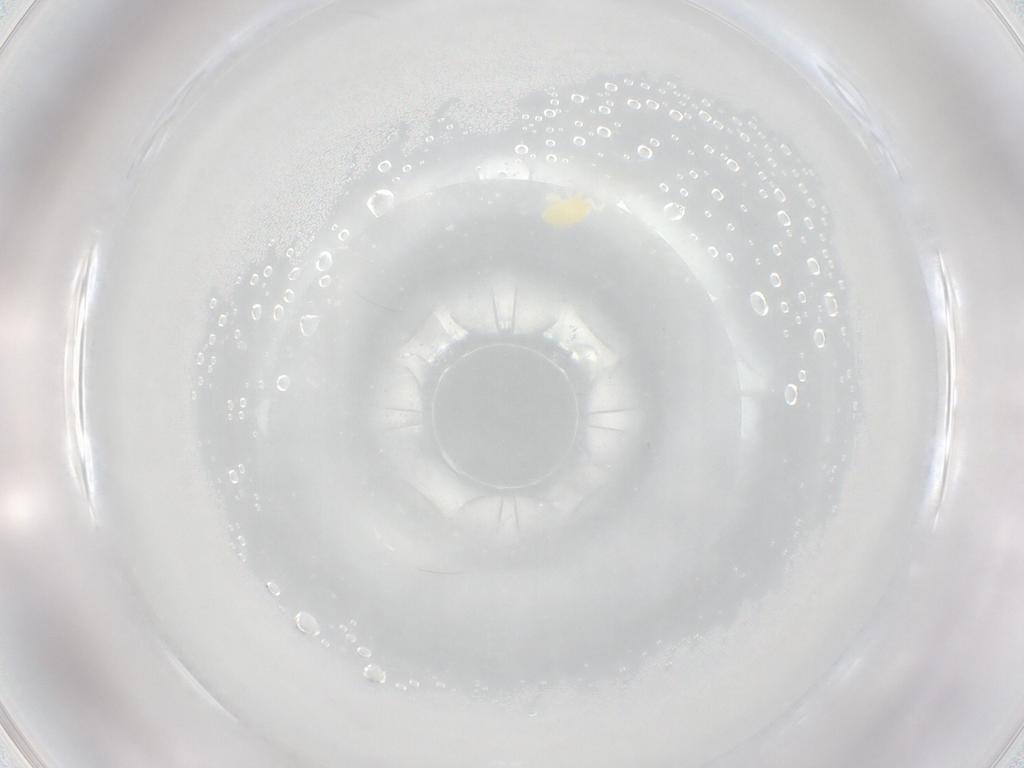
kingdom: Animalia
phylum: Arthropoda
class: Arachnida
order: Trombidiformes
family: Eupodidae
